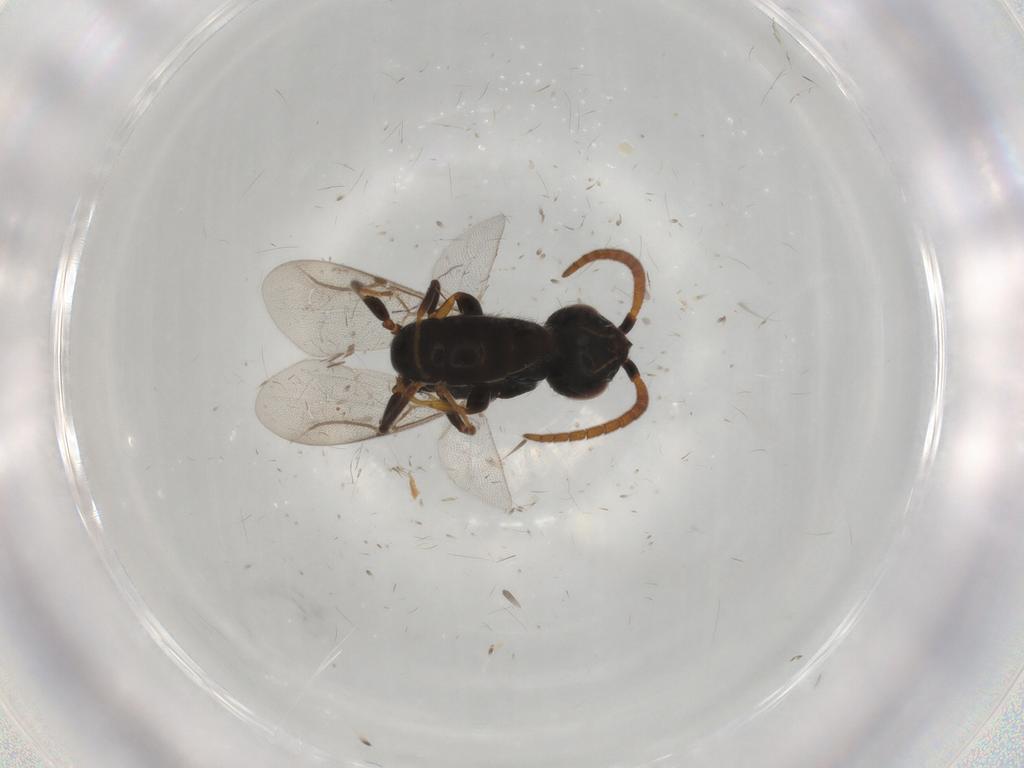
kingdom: Animalia
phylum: Arthropoda
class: Insecta
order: Hymenoptera
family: Bethylidae
